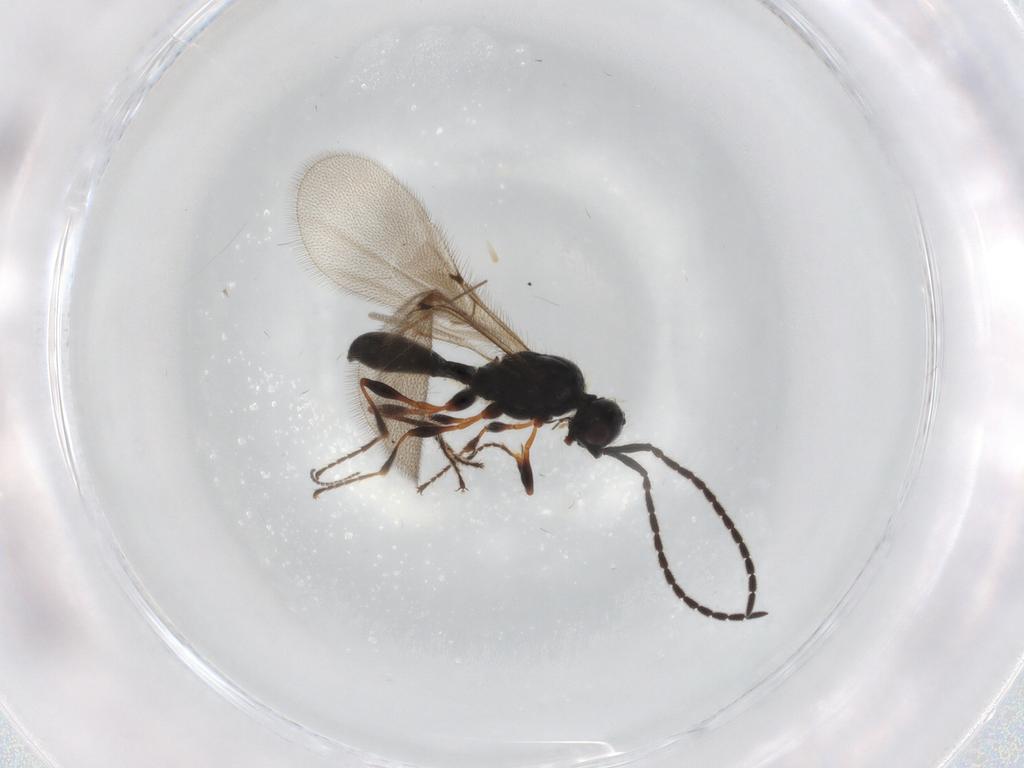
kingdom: Animalia
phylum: Arthropoda
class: Insecta
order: Hymenoptera
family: Diapriidae
